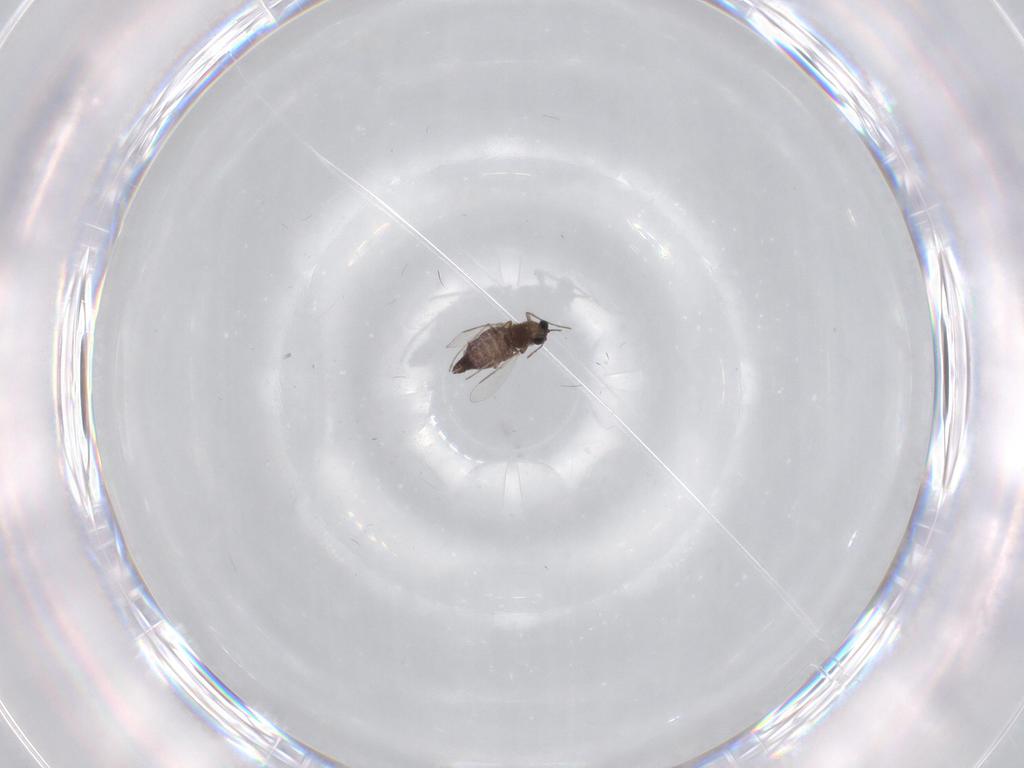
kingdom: Animalia
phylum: Arthropoda
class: Insecta
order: Diptera
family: Chironomidae
